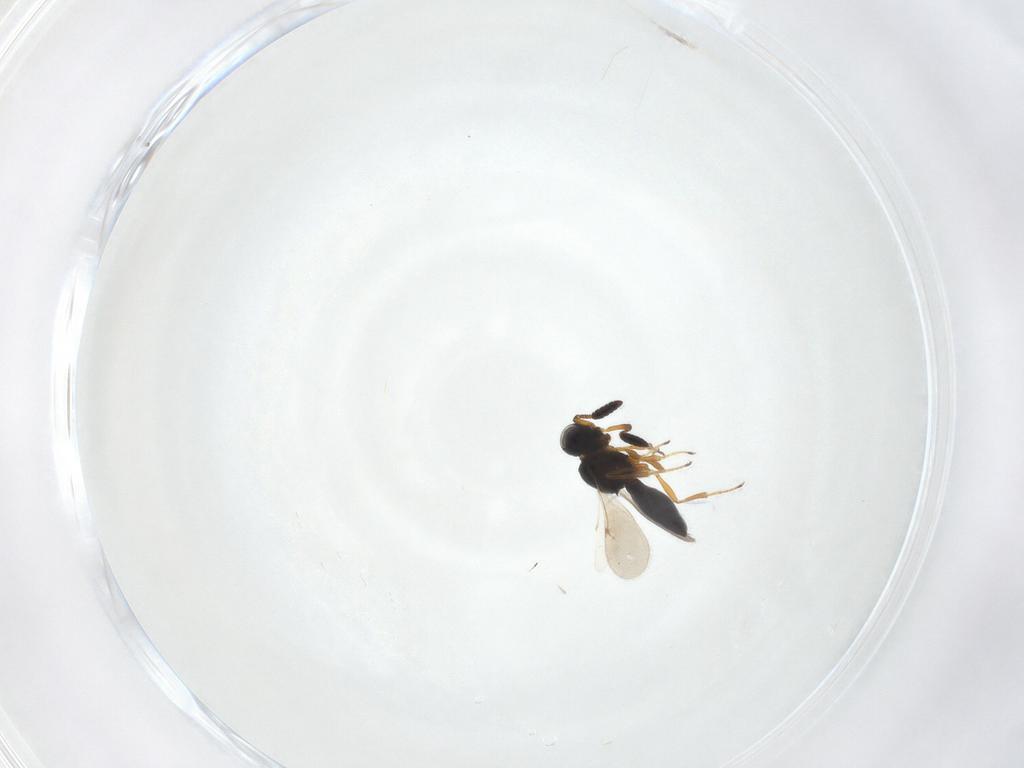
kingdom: Animalia
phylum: Arthropoda
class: Insecta
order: Hymenoptera
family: Scelionidae
